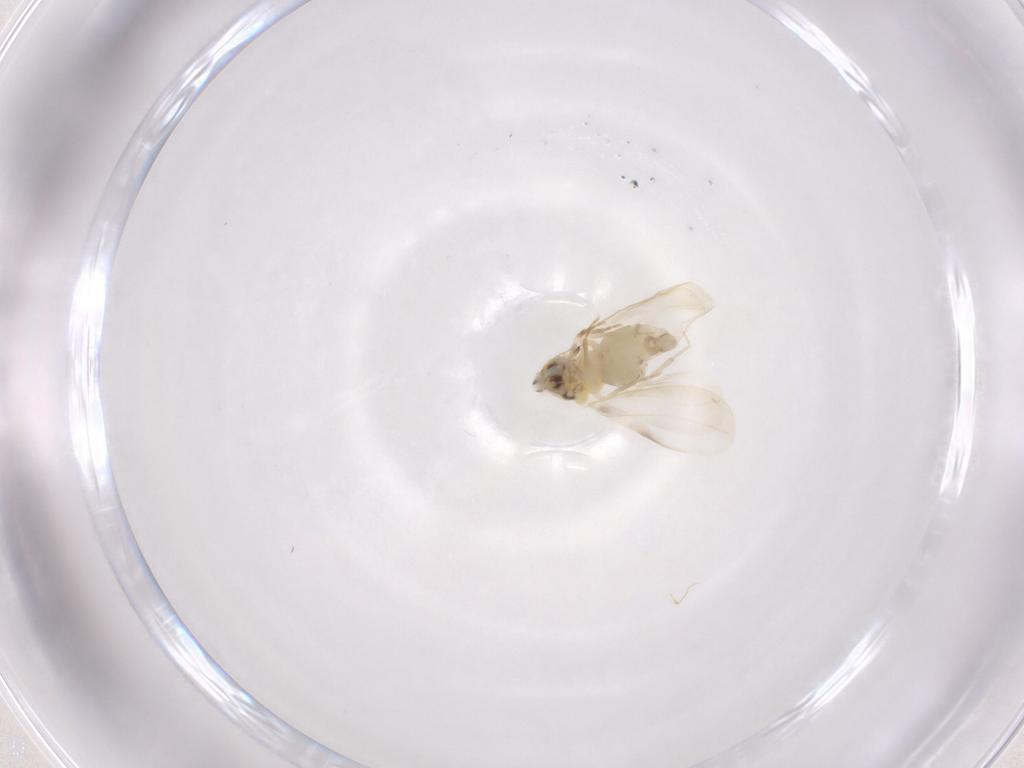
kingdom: Animalia
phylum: Arthropoda
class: Insecta
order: Hemiptera
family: Aleyrodidae
